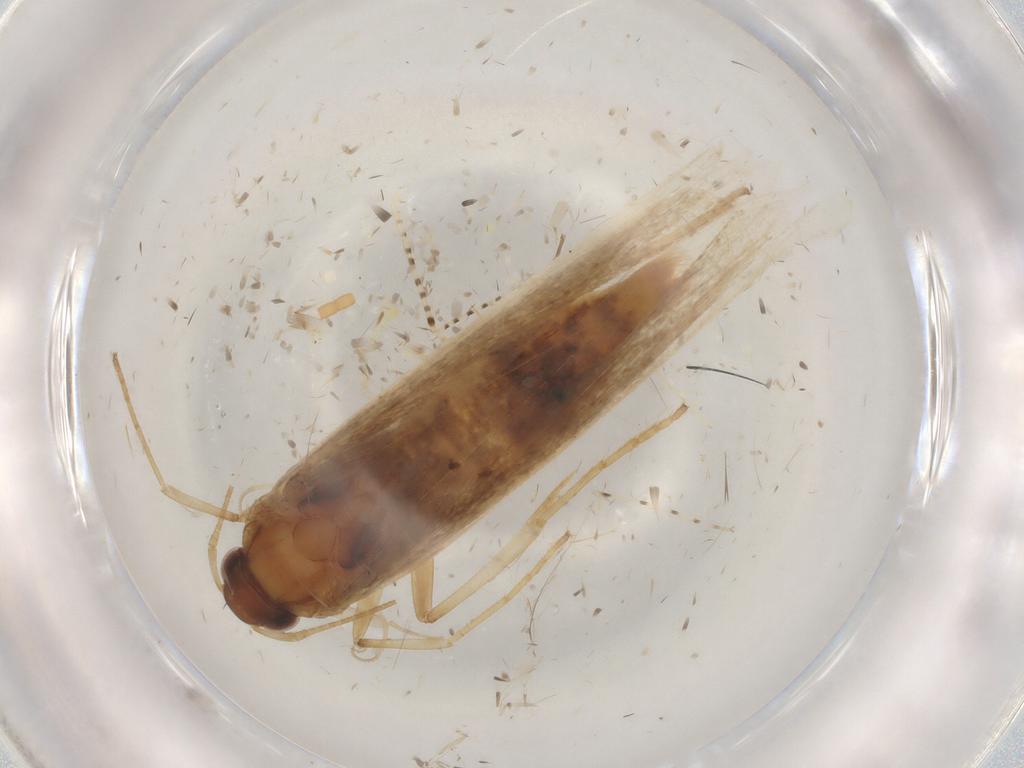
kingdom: Animalia
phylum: Arthropoda
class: Insecta
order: Lepidoptera
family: Gelechiidae
